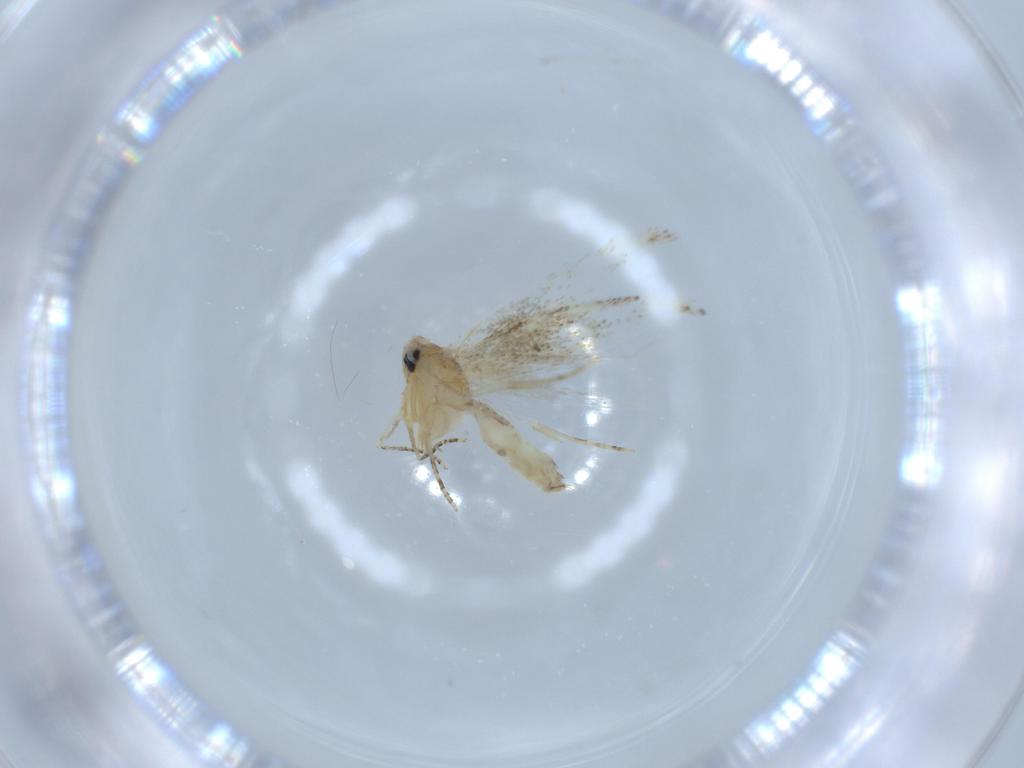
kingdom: Animalia
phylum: Arthropoda
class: Insecta
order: Lepidoptera
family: Bucculatricidae
